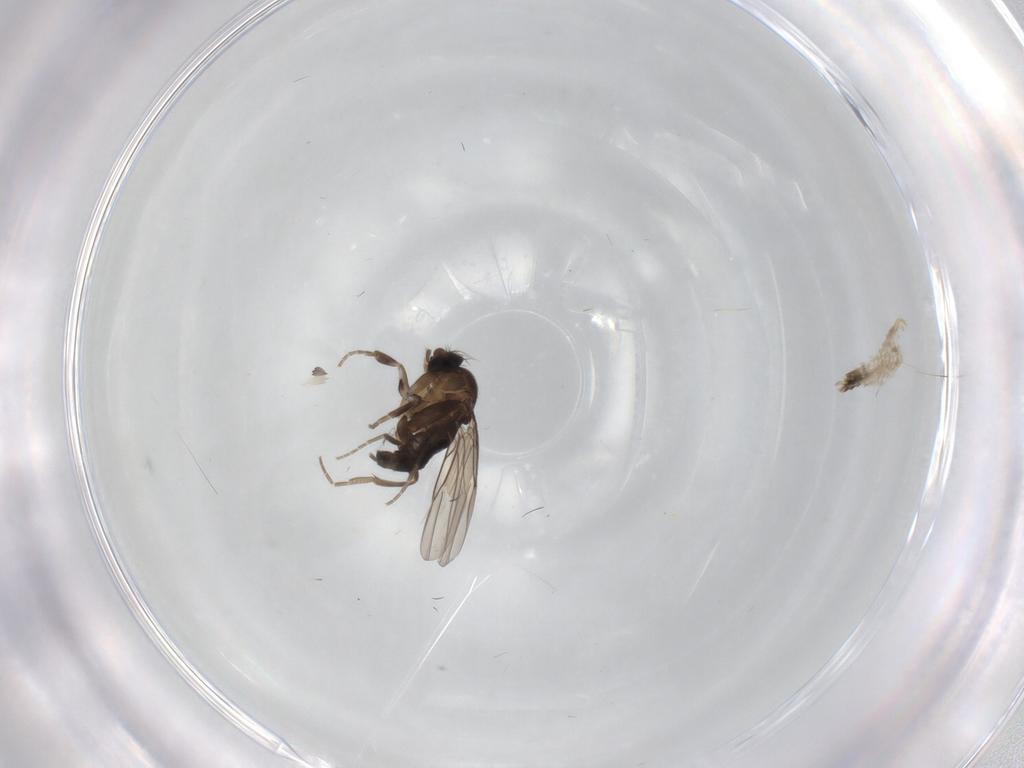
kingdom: Animalia
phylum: Arthropoda
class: Insecta
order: Diptera
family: Phoridae
